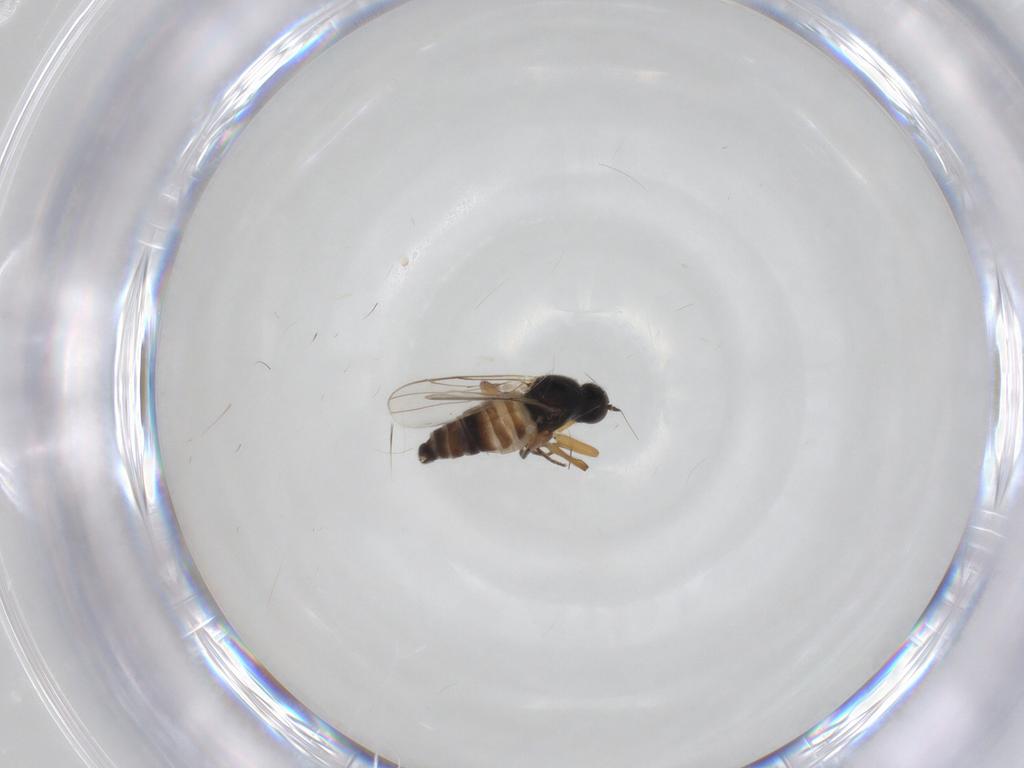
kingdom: Animalia
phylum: Arthropoda
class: Insecta
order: Diptera
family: Hybotidae
